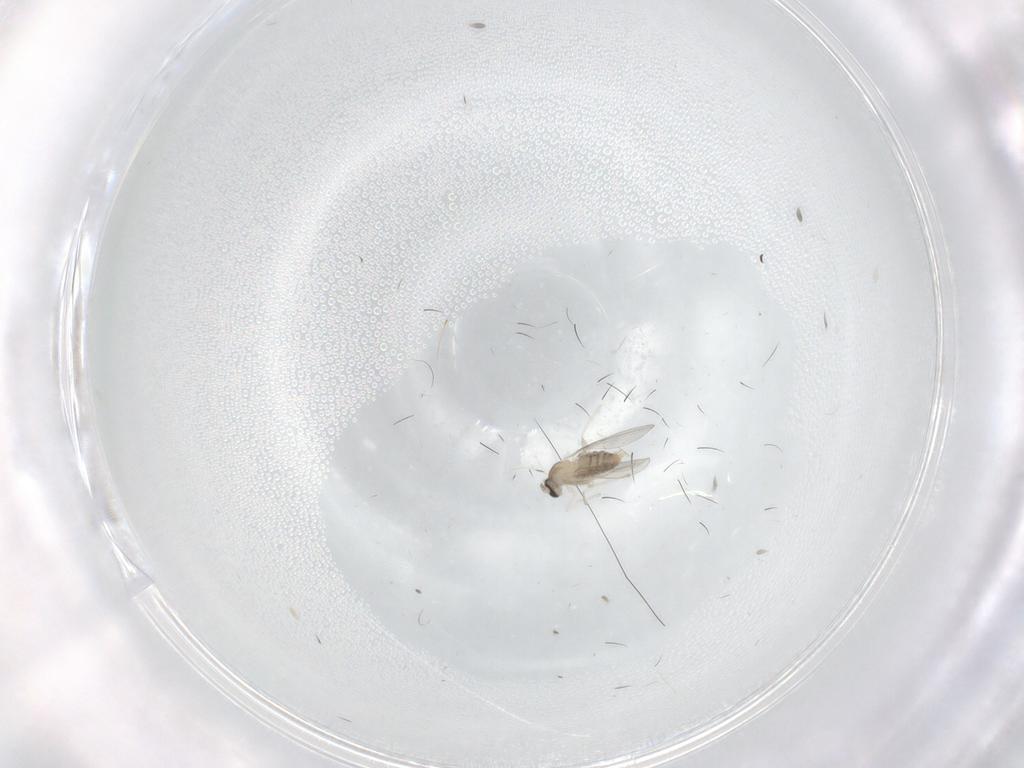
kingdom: Animalia
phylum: Arthropoda
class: Insecta
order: Diptera
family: Cecidomyiidae
